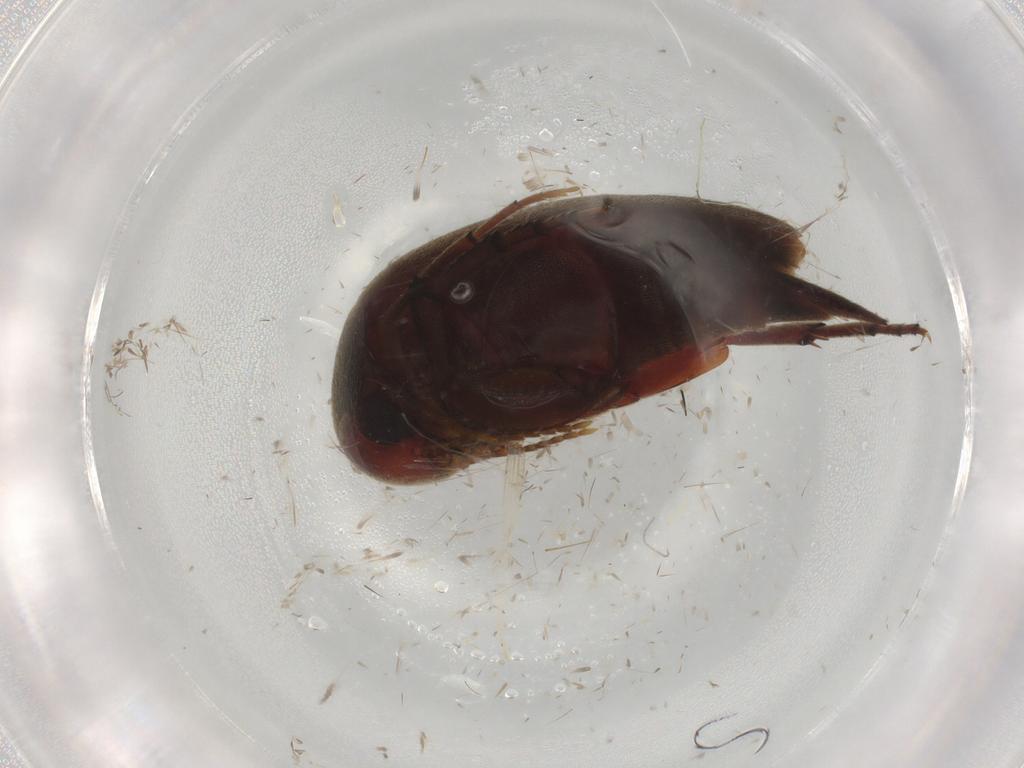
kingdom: Animalia
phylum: Arthropoda
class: Insecta
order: Coleoptera
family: Mordellidae
